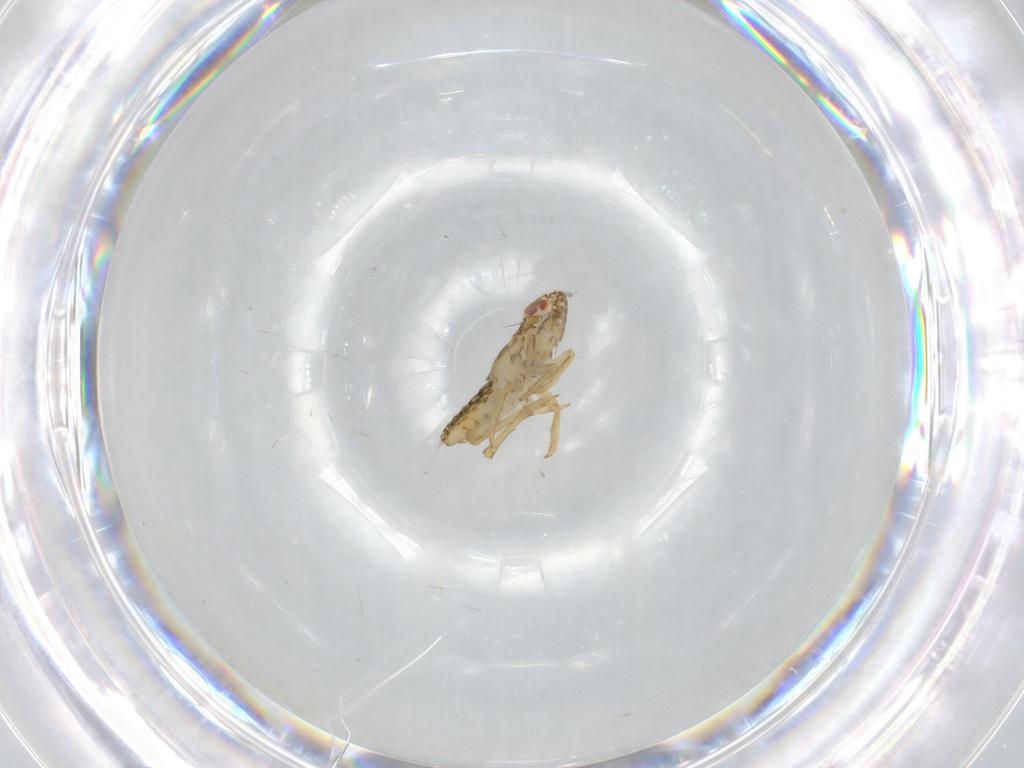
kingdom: Animalia
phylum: Arthropoda
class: Insecta
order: Hemiptera
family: Delphacidae
